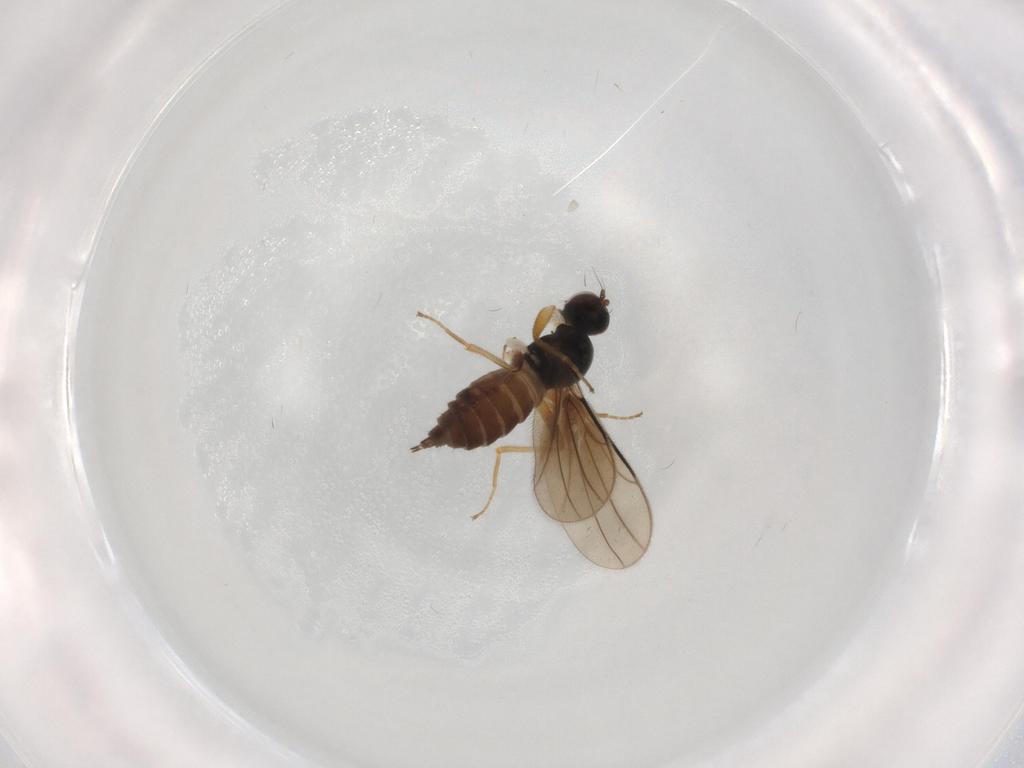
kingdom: Animalia
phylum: Arthropoda
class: Insecta
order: Diptera
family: Hybotidae
